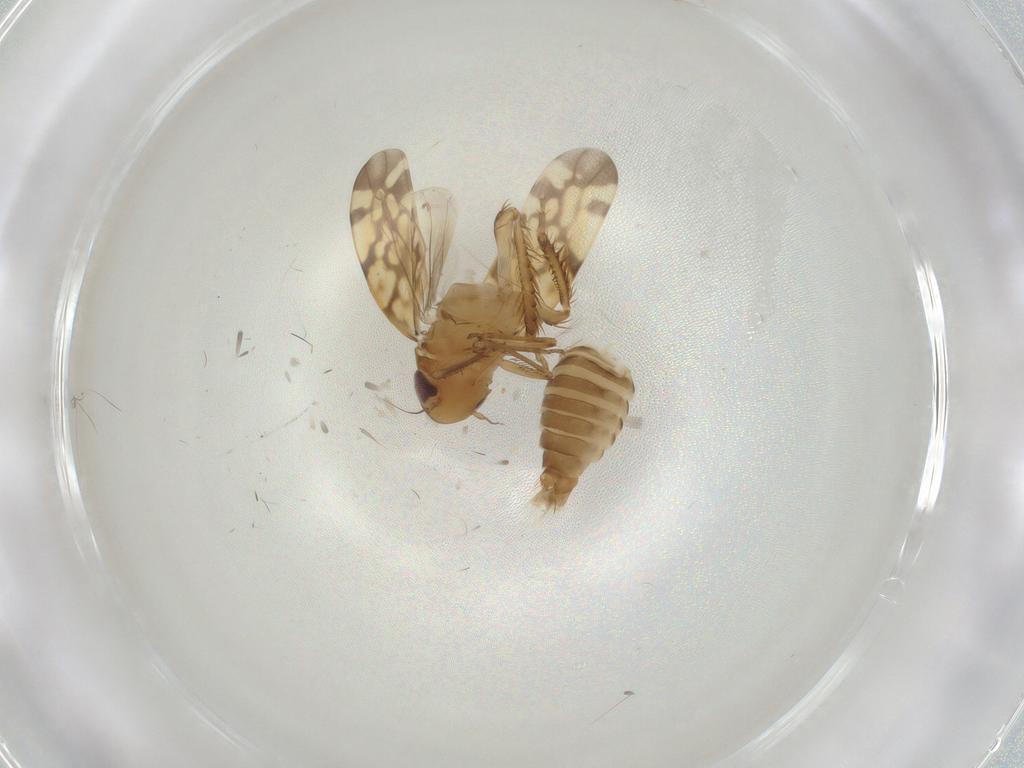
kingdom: Animalia
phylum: Arthropoda
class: Insecta
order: Hemiptera
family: Cicadellidae
